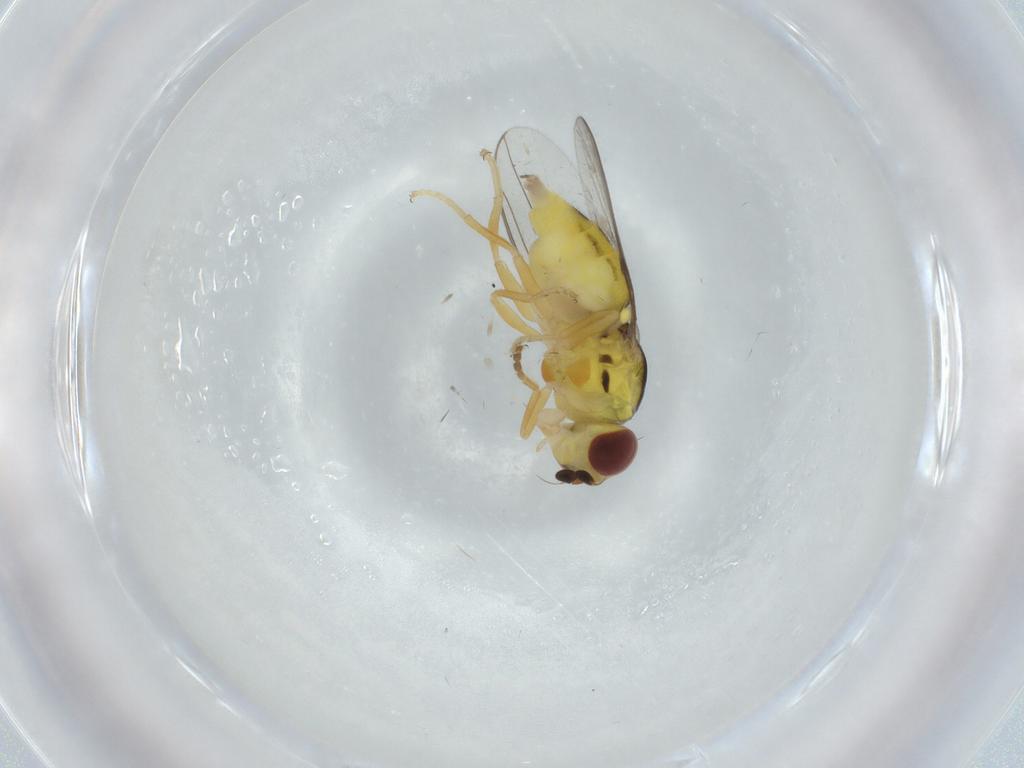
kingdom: Animalia
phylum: Arthropoda
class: Insecta
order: Diptera
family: Chloropidae
